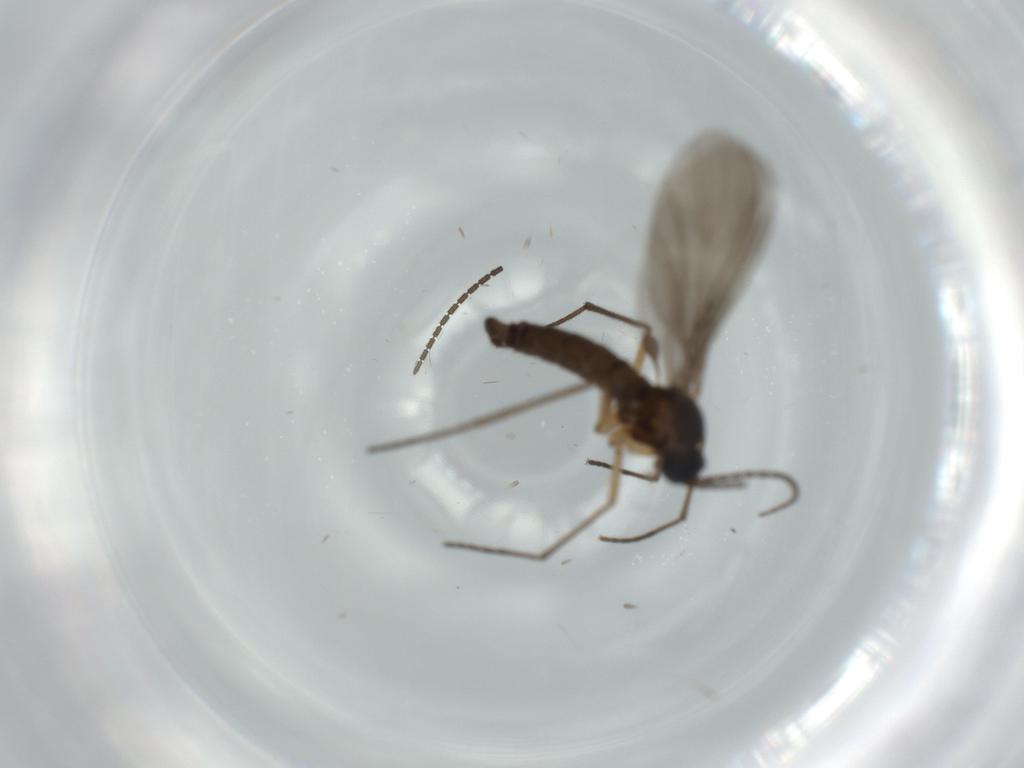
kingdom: Animalia
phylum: Arthropoda
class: Insecta
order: Diptera
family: Sciaridae
